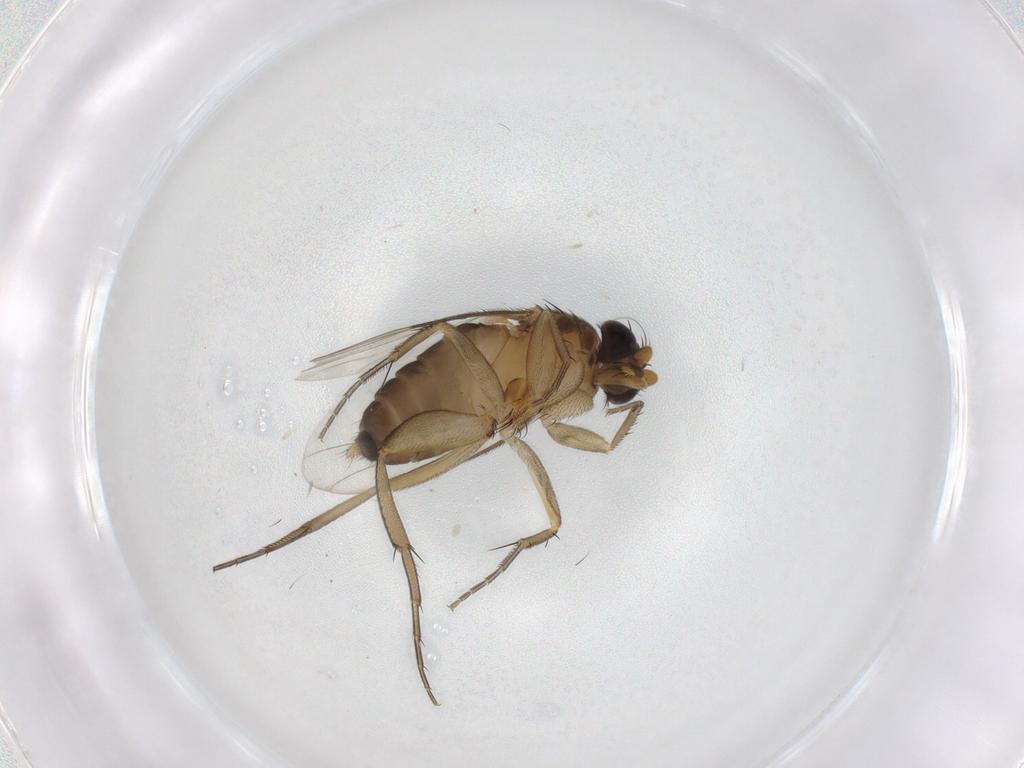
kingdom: Animalia
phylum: Arthropoda
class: Insecta
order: Diptera
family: Phoridae
